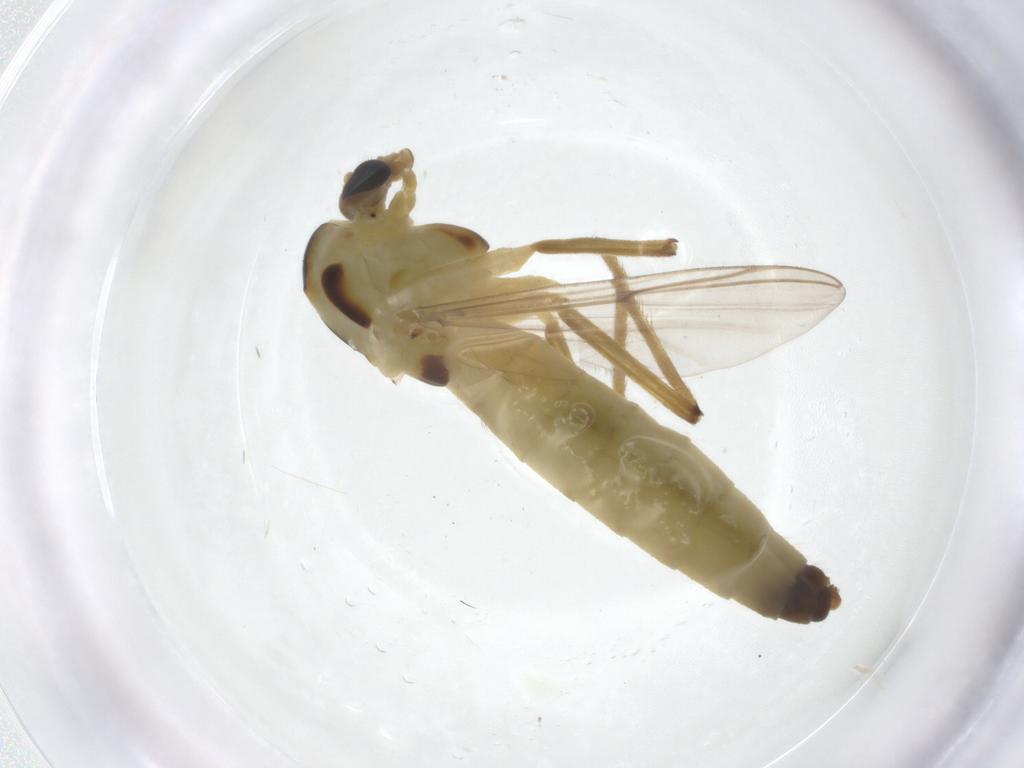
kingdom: Animalia
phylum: Arthropoda
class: Insecta
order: Diptera
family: Chironomidae
